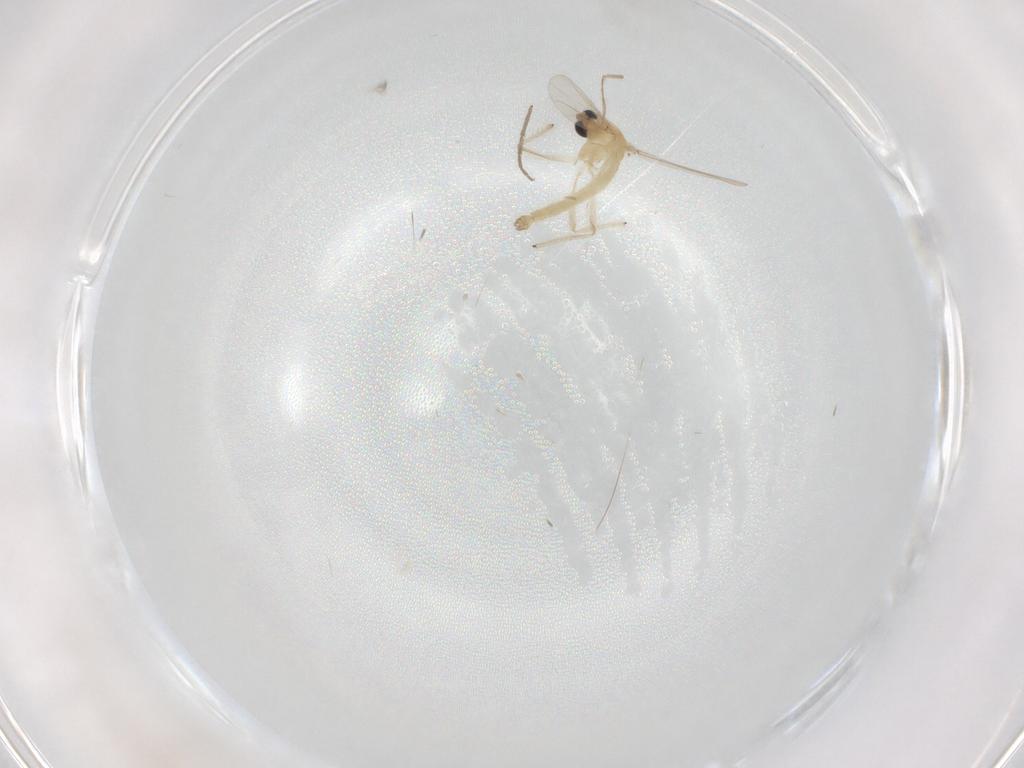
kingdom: Animalia
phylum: Arthropoda
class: Insecta
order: Diptera
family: Chironomidae
